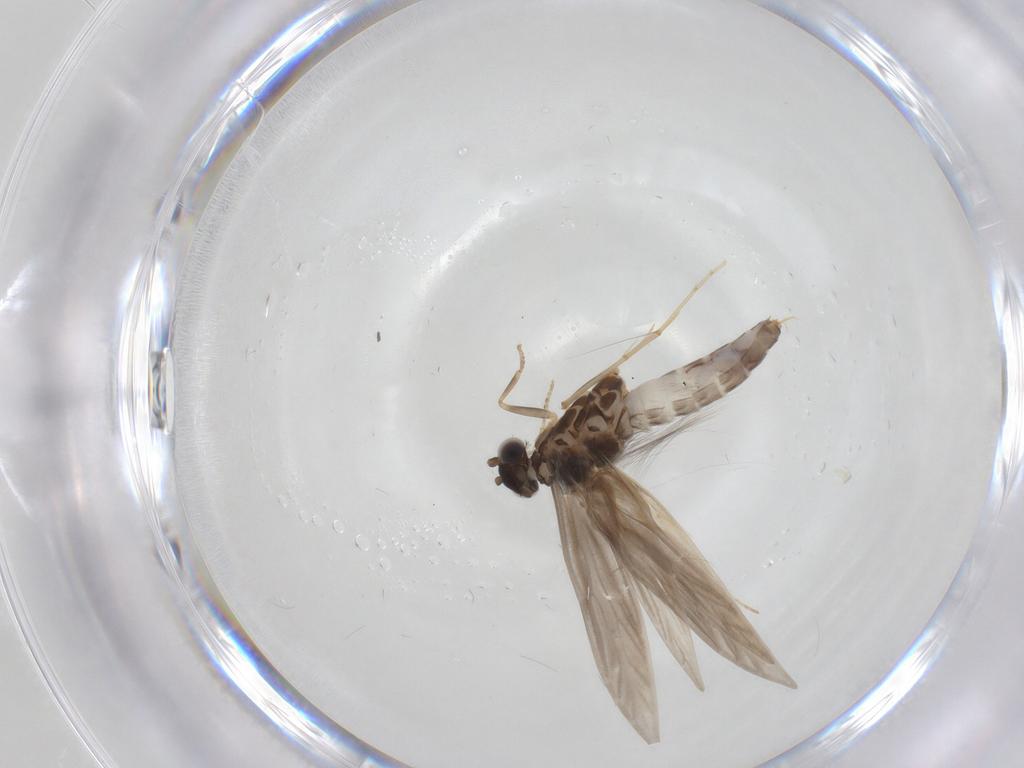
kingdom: Animalia
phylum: Arthropoda
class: Insecta
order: Trichoptera
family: Hydroptilidae
